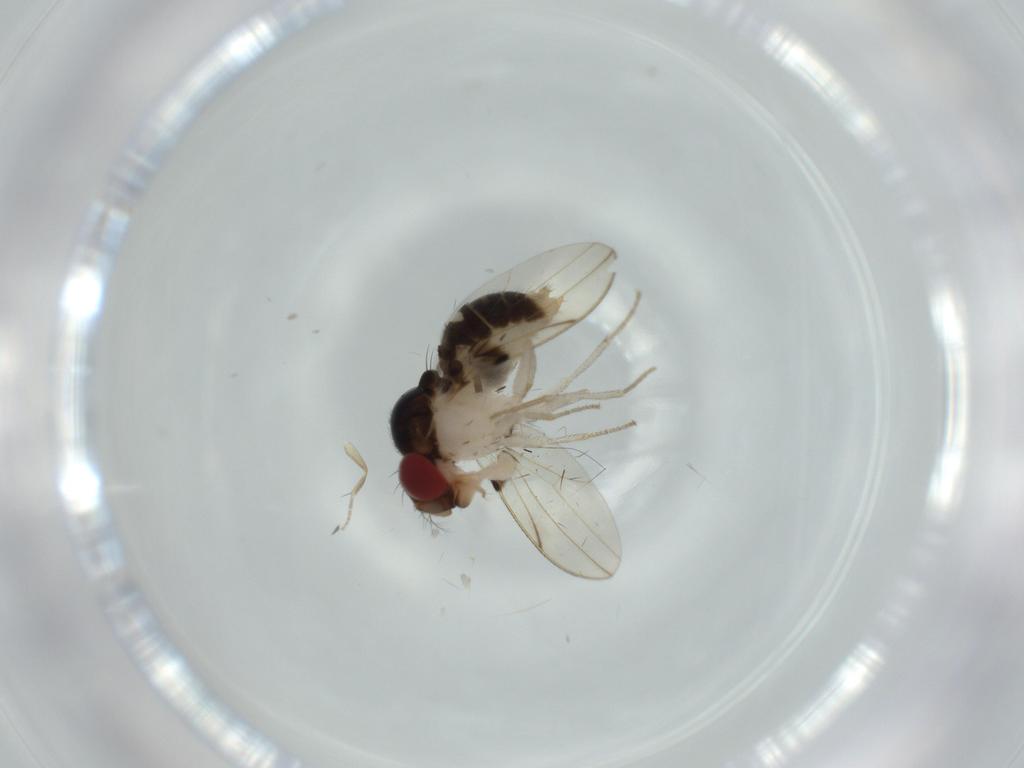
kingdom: Animalia
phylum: Arthropoda
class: Insecta
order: Diptera
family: Drosophilidae
